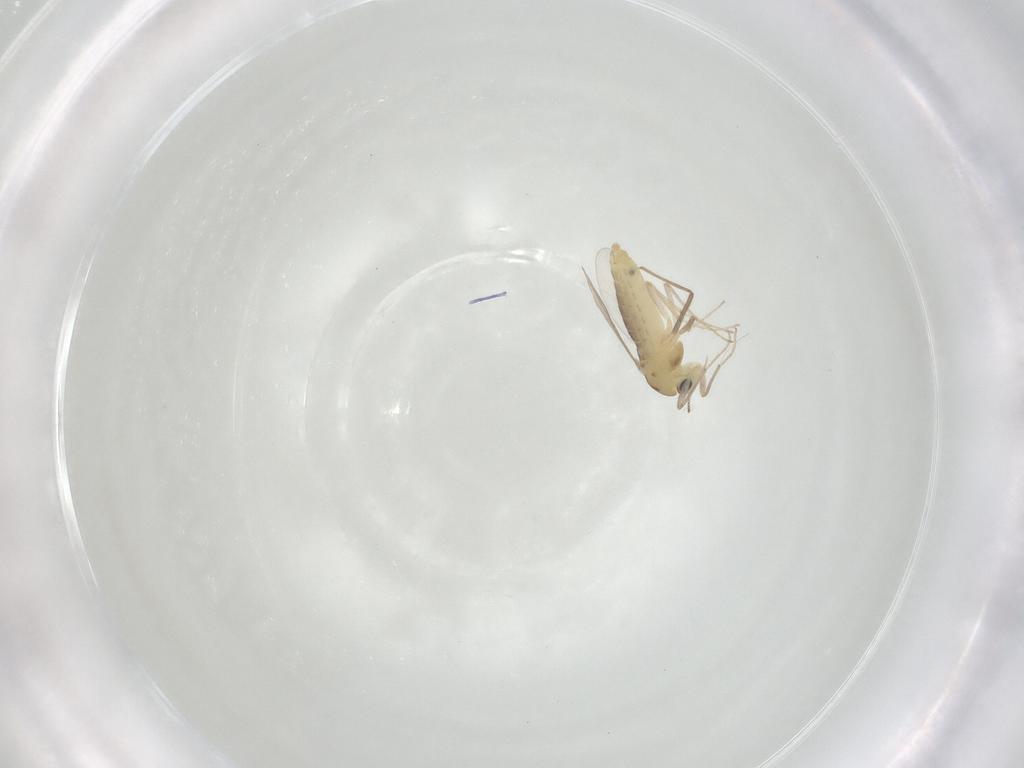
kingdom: Animalia
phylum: Arthropoda
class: Insecta
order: Diptera
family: Chironomidae
